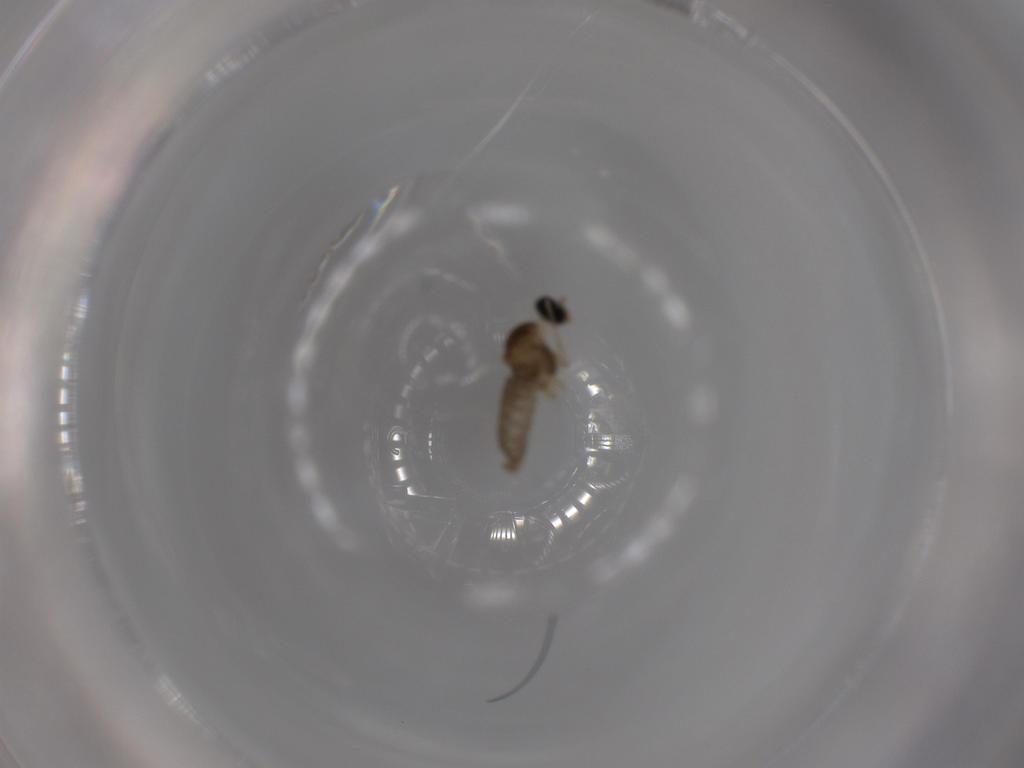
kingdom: Animalia
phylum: Arthropoda
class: Insecta
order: Diptera
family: Cecidomyiidae
